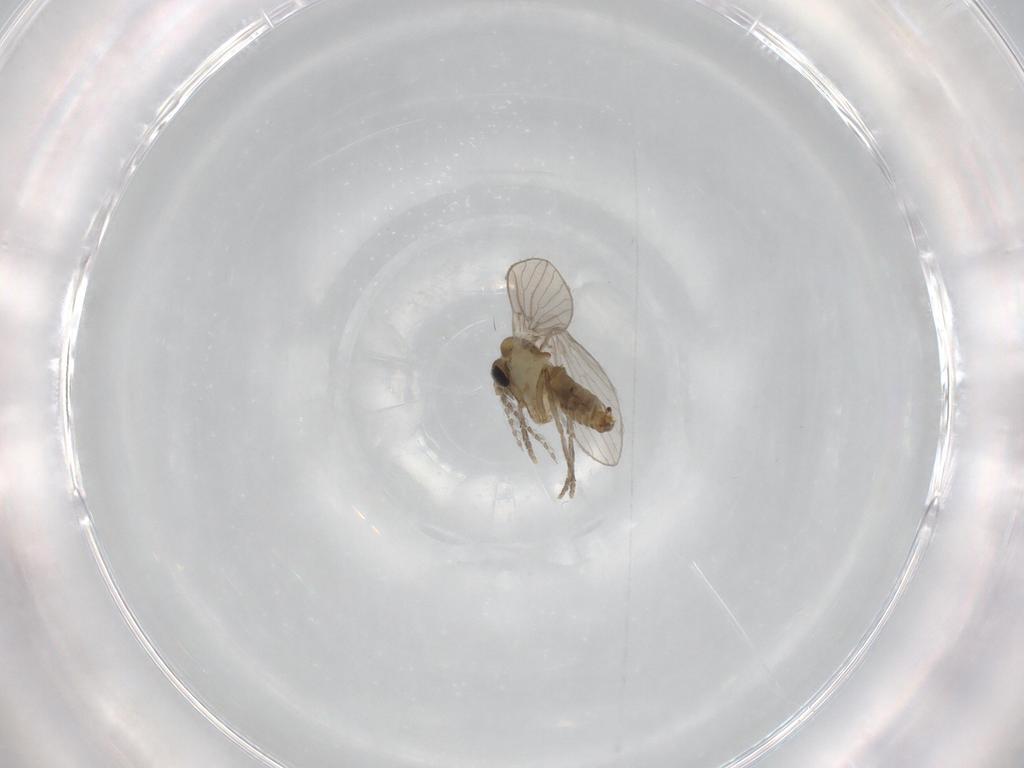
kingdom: Animalia
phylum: Arthropoda
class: Insecta
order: Diptera
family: Psychodidae
